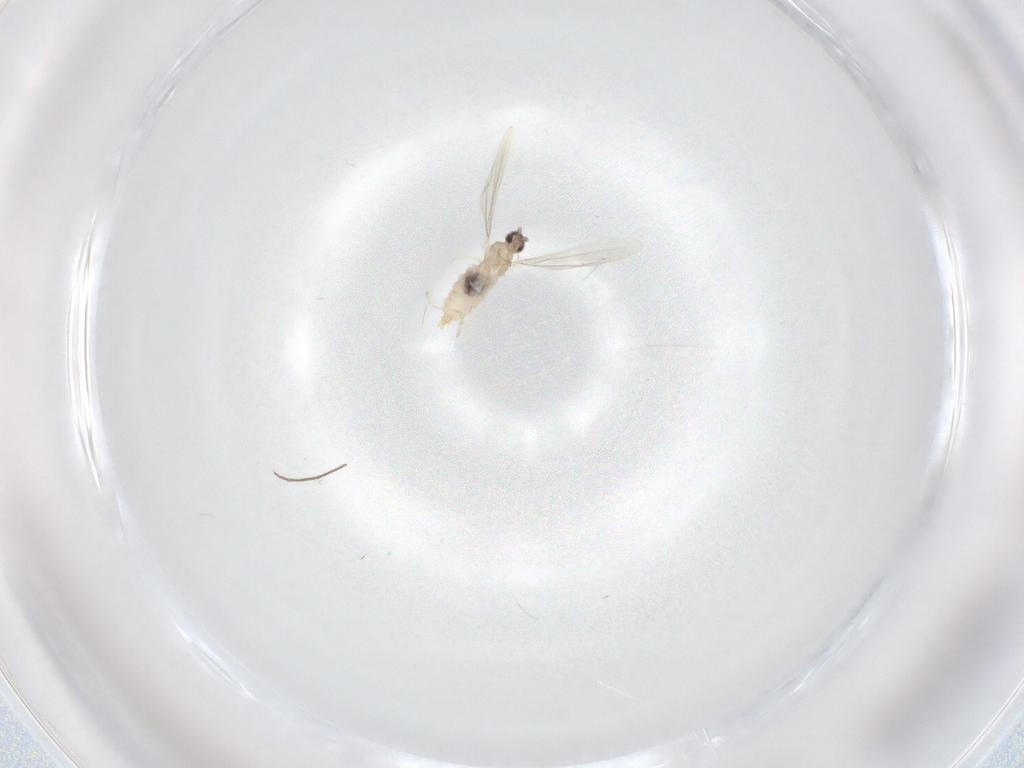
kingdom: Animalia
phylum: Arthropoda
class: Insecta
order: Diptera
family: Cecidomyiidae
